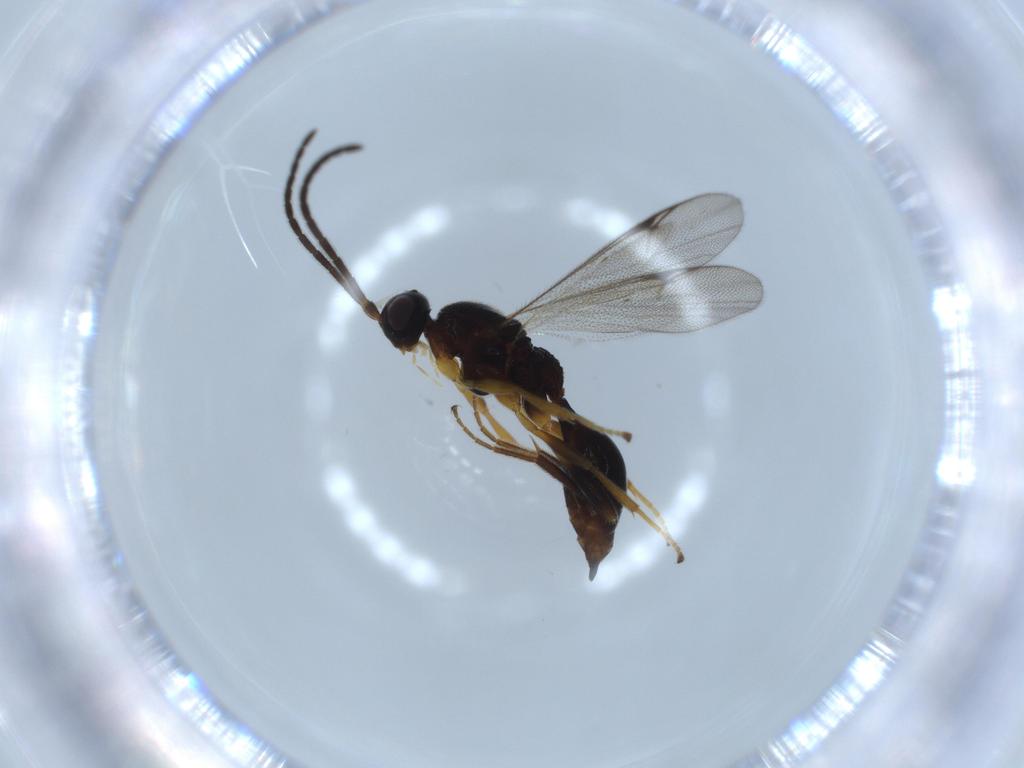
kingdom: Animalia
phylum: Arthropoda
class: Insecta
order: Hymenoptera
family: Proctotrupidae
